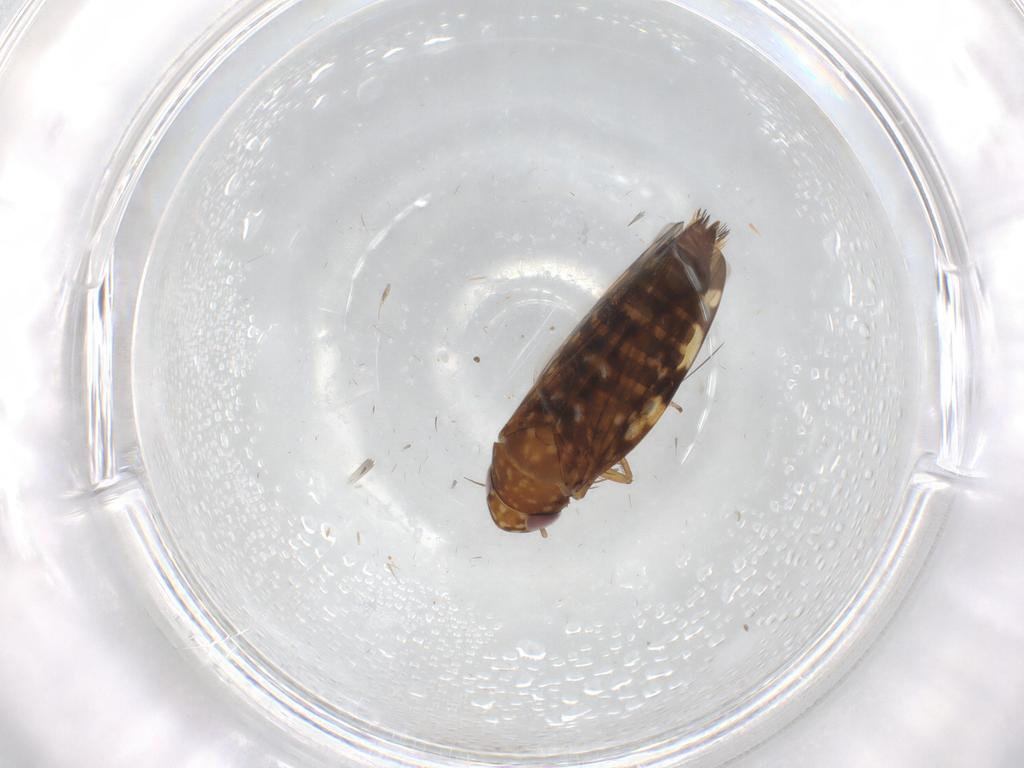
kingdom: Animalia
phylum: Arthropoda
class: Insecta
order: Hemiptera
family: Cicadellidae
